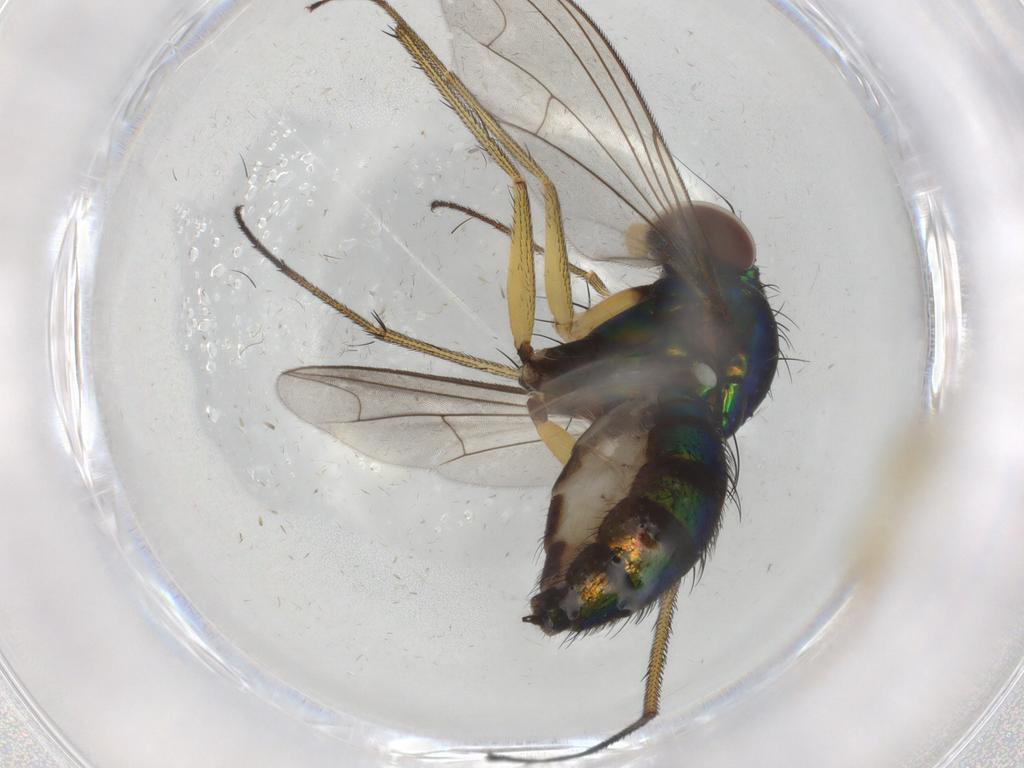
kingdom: Animalia
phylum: Arthropoda
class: Insecta
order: Diptera
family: Dolichopodidae
